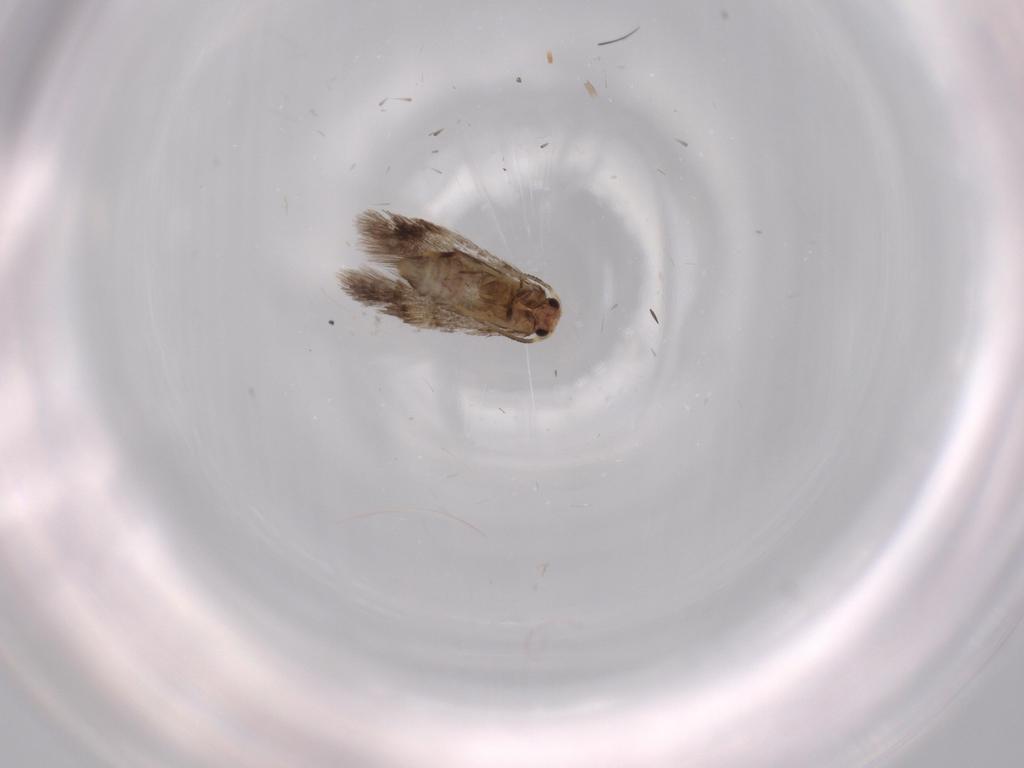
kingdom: Animalia
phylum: Arthropoda
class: Insecta
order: Lepidoptera
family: Nepticulidae
